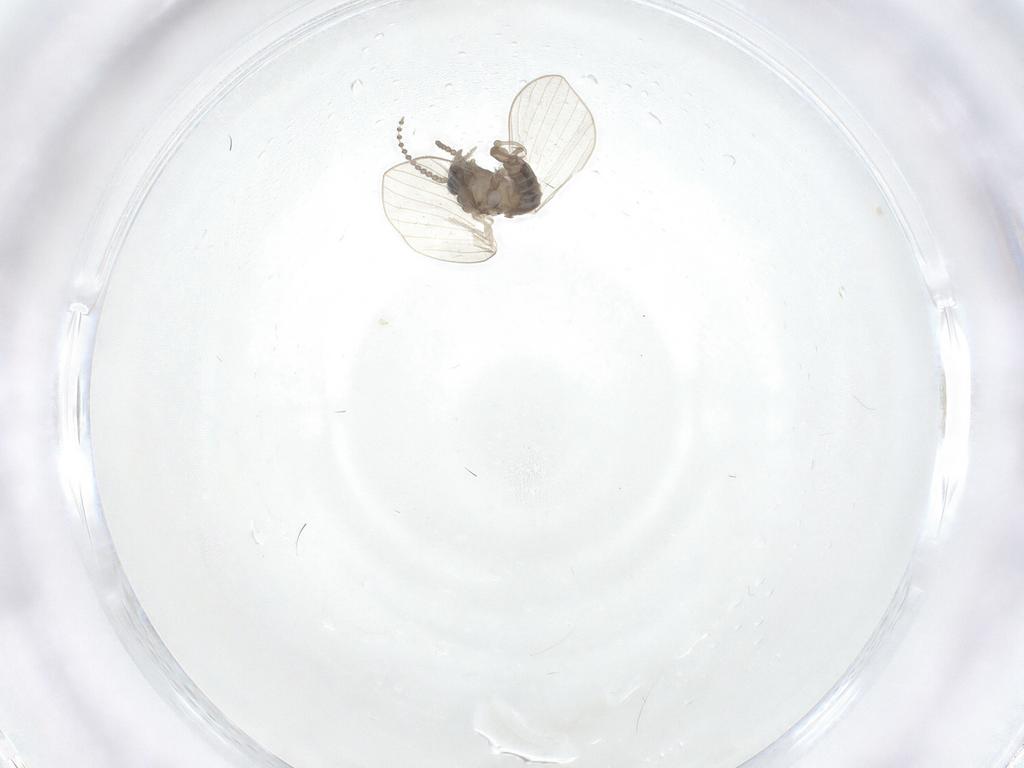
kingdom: Animalia
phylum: Arthropoda
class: Insecta
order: Diptera
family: Psychodidae
